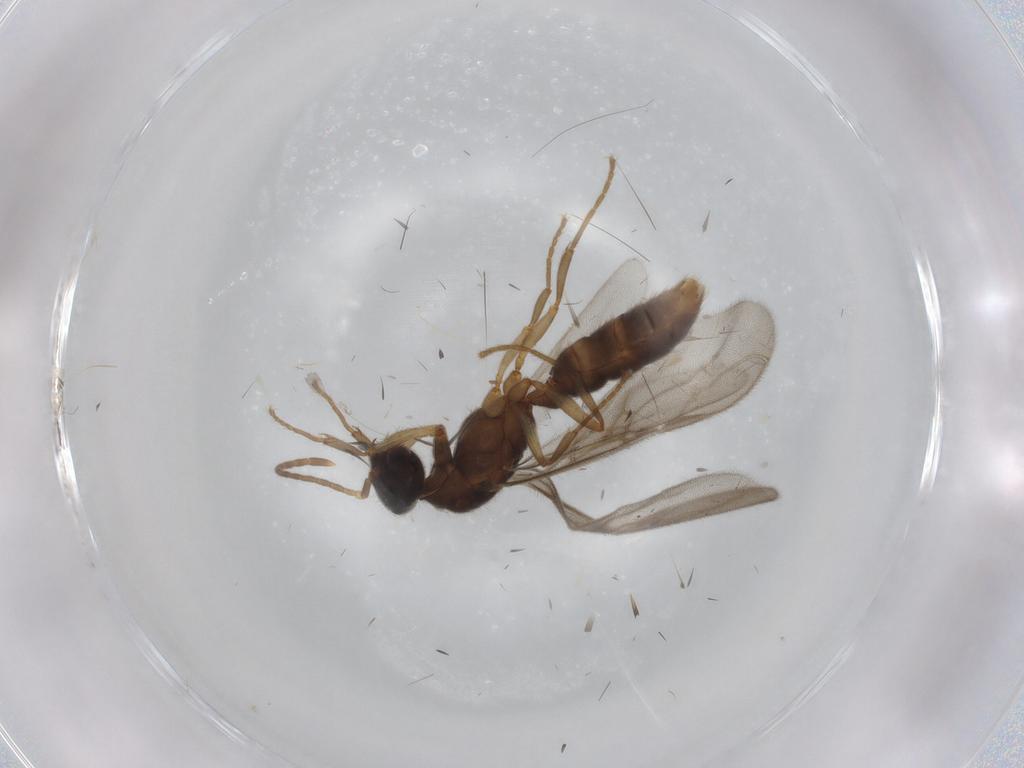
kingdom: Animalia
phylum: Arthropoda
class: Insecta
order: Hymenoptera
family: Formicidae
